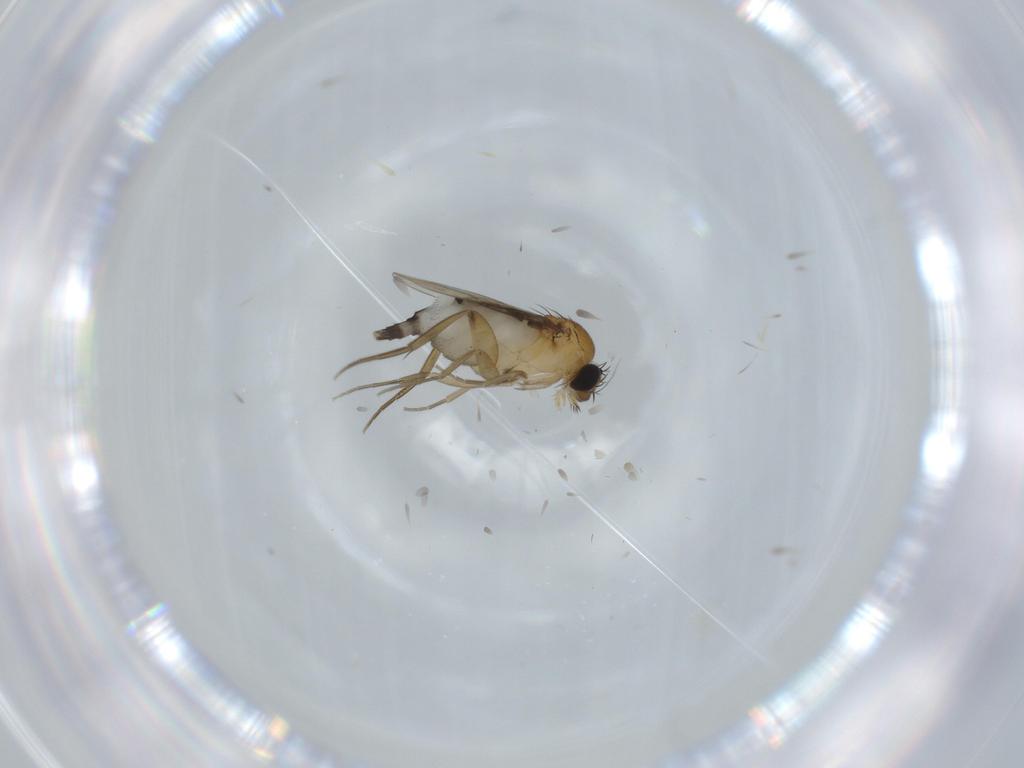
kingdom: Animalia
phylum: Arthropoda
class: Insecta
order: Diptera
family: Phoridae
